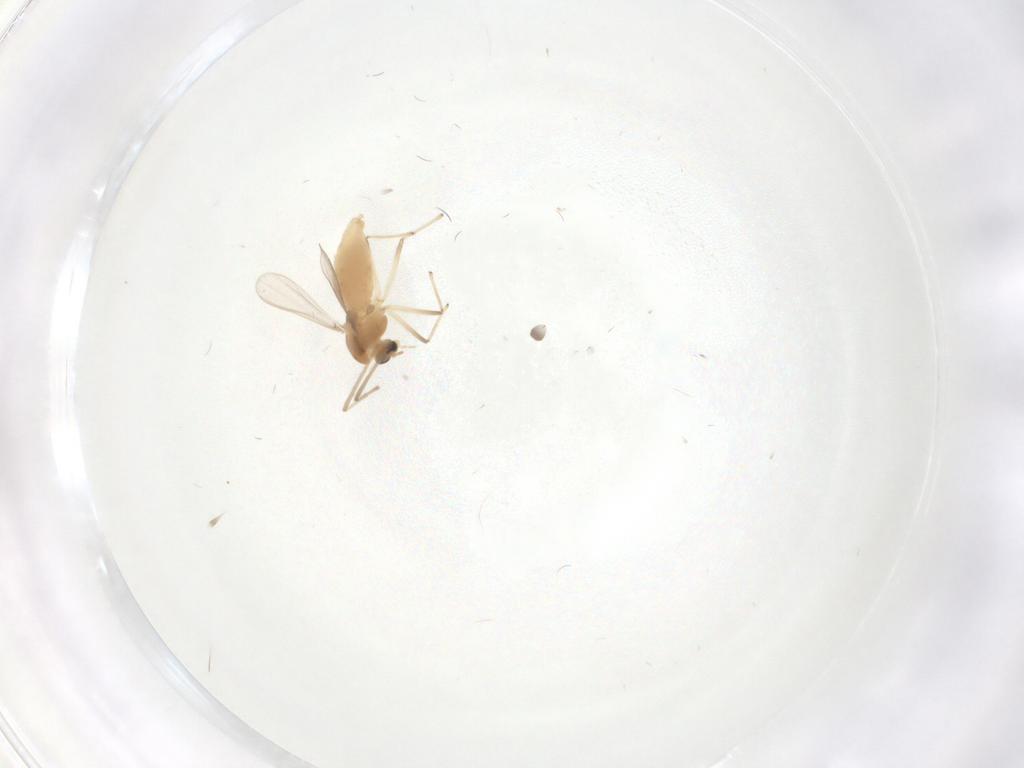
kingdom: Animalia
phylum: Arthropoda
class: Insecta
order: Diptera
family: Chironomidae
